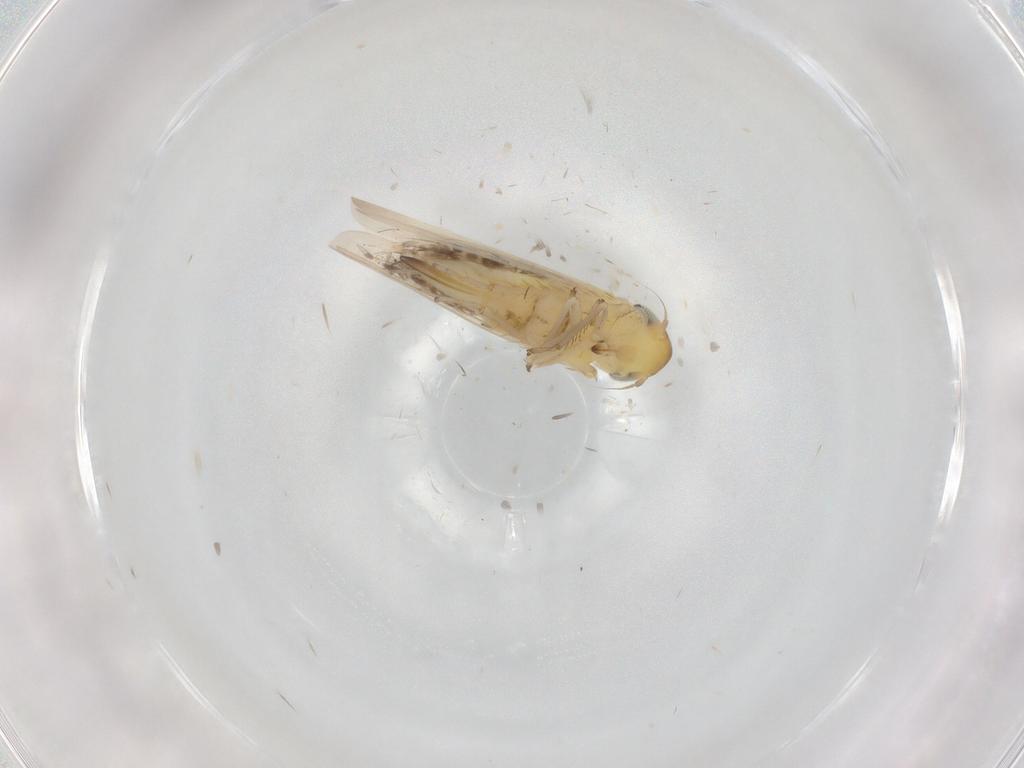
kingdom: Animalia
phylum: Arthropoda
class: Insecta
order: Hemiptera
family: Cicadellidae
